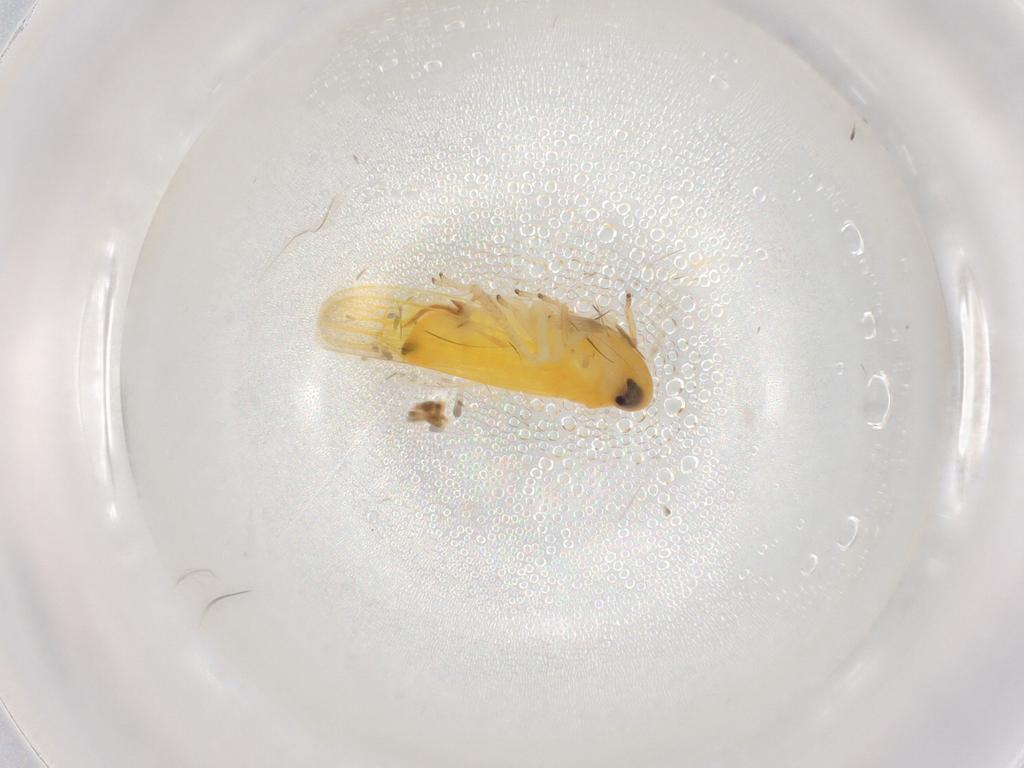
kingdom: Animalia
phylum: Arthropoda
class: Insecta
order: Hemiptera
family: Cicadellidae
